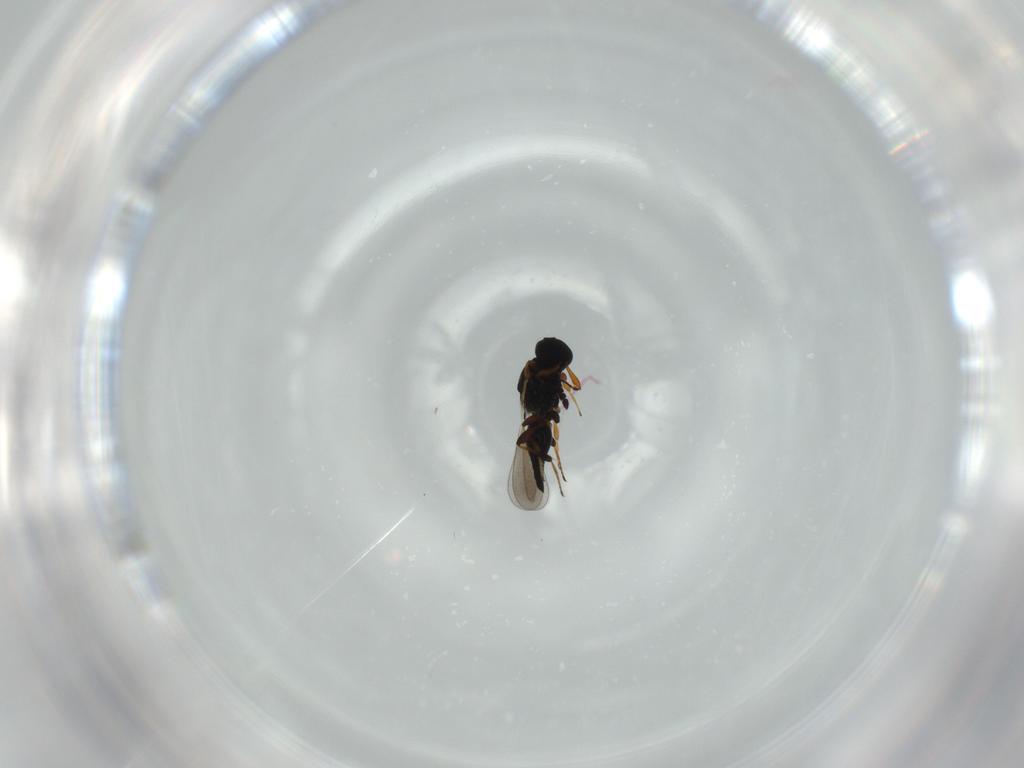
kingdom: Animalia
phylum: Arthropoda
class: Insecta
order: Hymenoptera
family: Platygastridae
